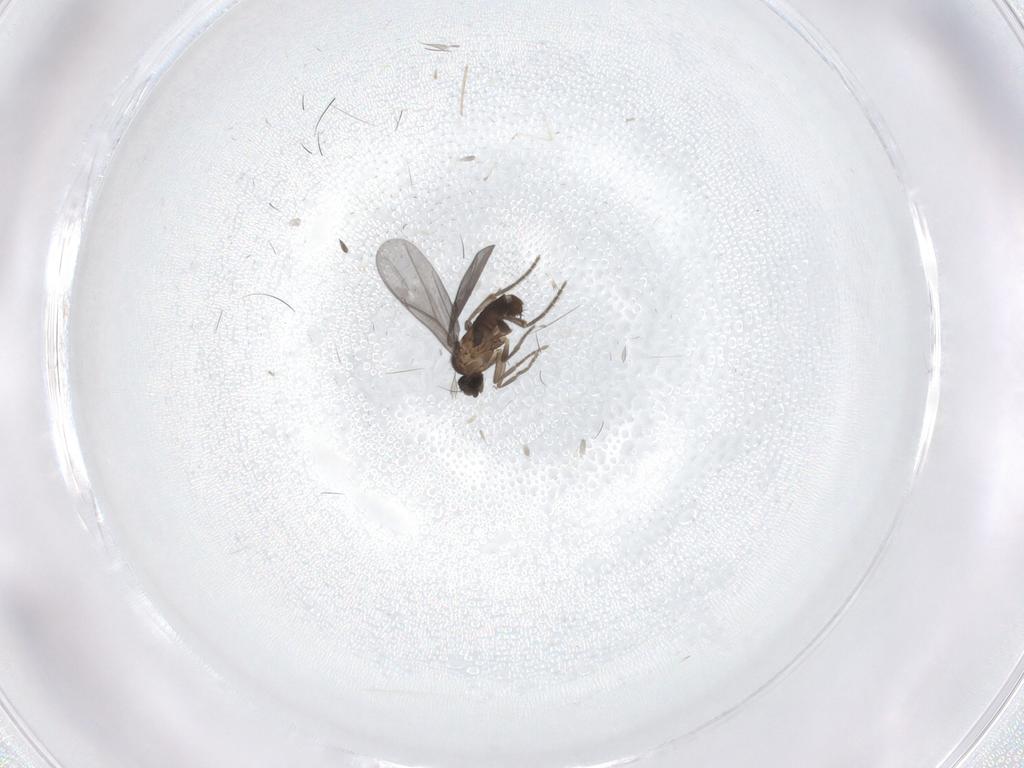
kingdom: Animalia
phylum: Arthropoda
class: Insecta
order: Diptera
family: Phoridae
